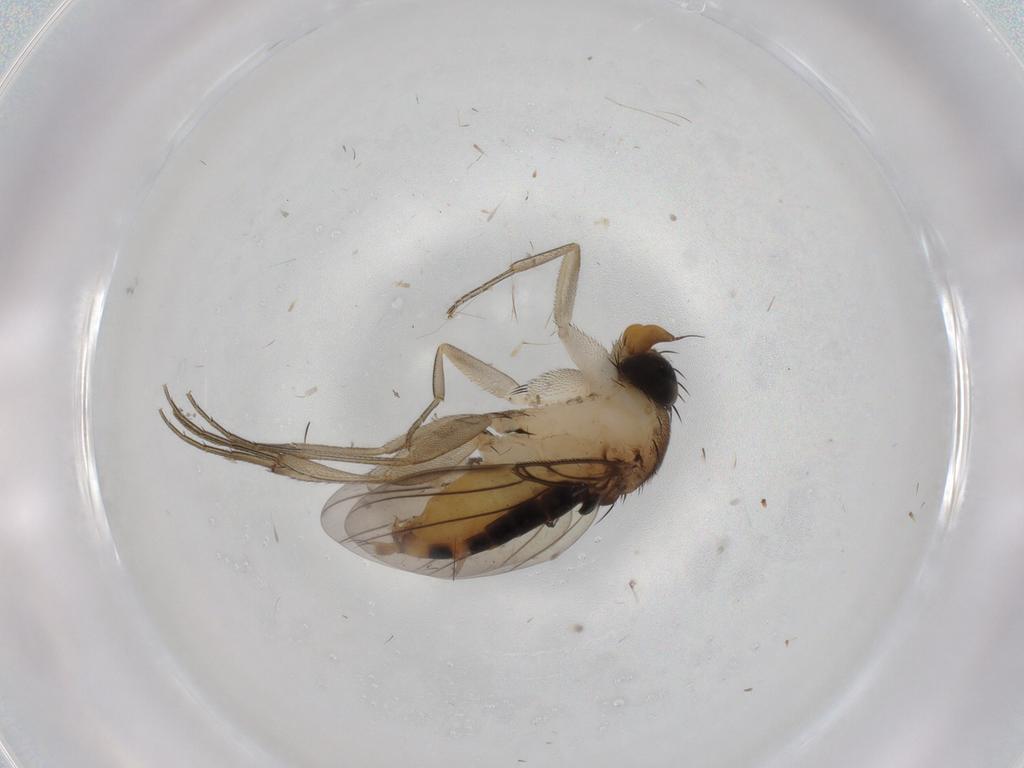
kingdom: Animalia
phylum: Arthropoda
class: Insecta
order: Diptera
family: Phoridae
